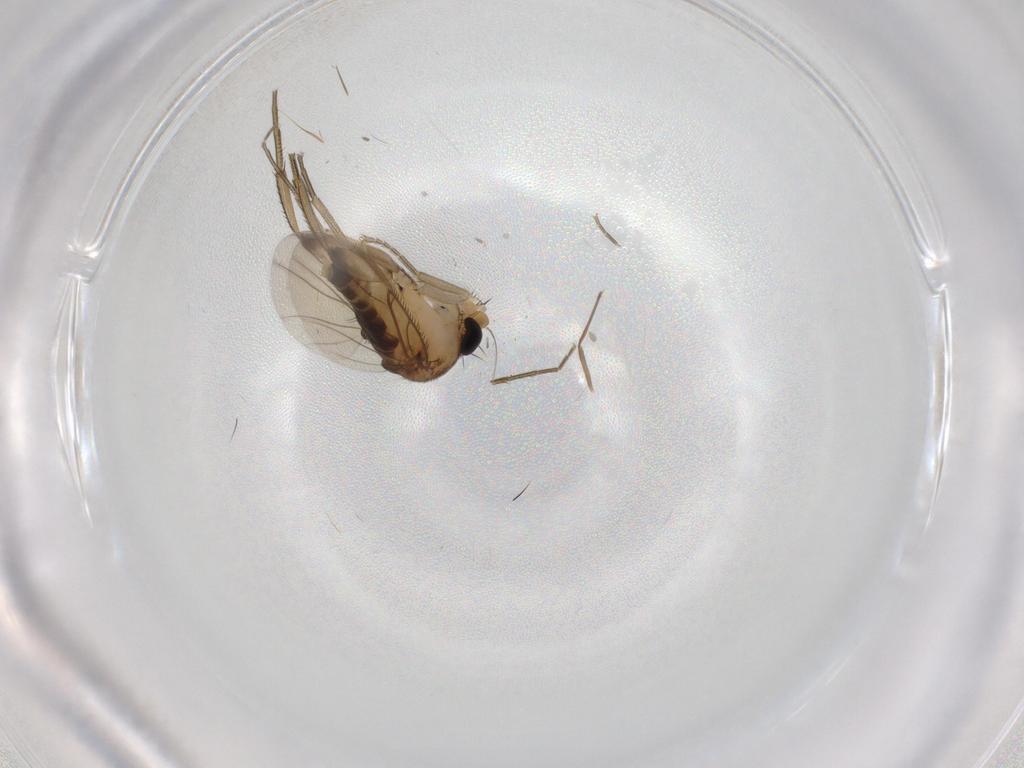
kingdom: Animalia
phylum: Arthropoda
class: Insecta
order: Diptera
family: Phoridae
